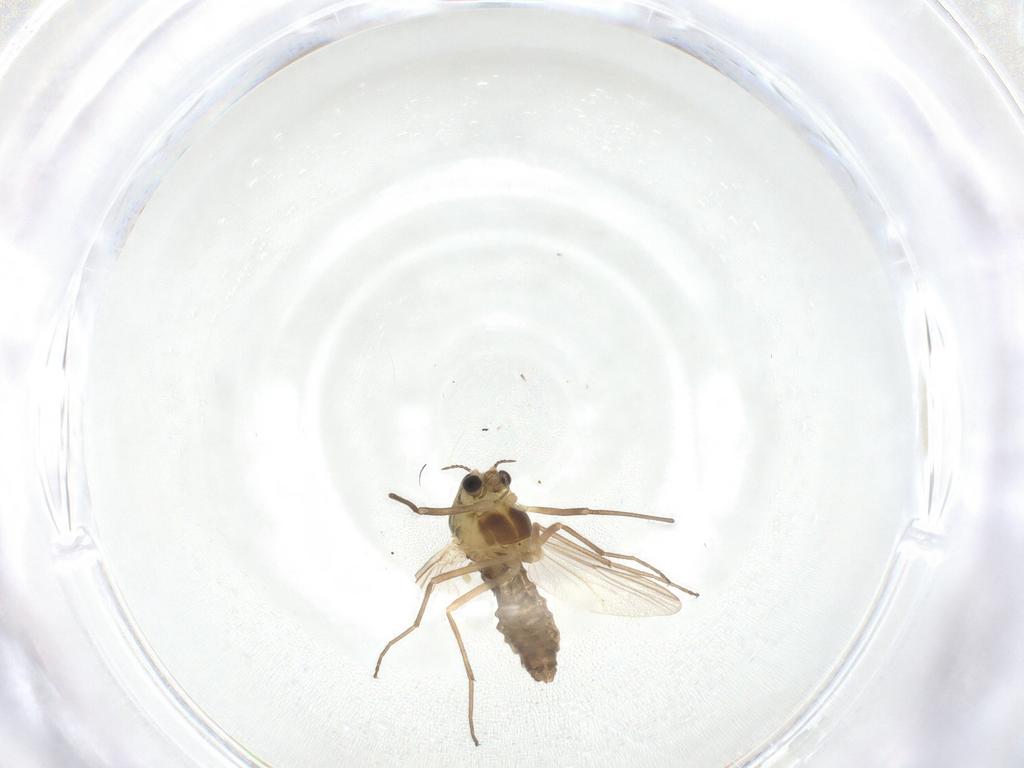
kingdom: Animalia
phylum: Arthropoda
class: Insecta
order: Diptera
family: Chironomidae
